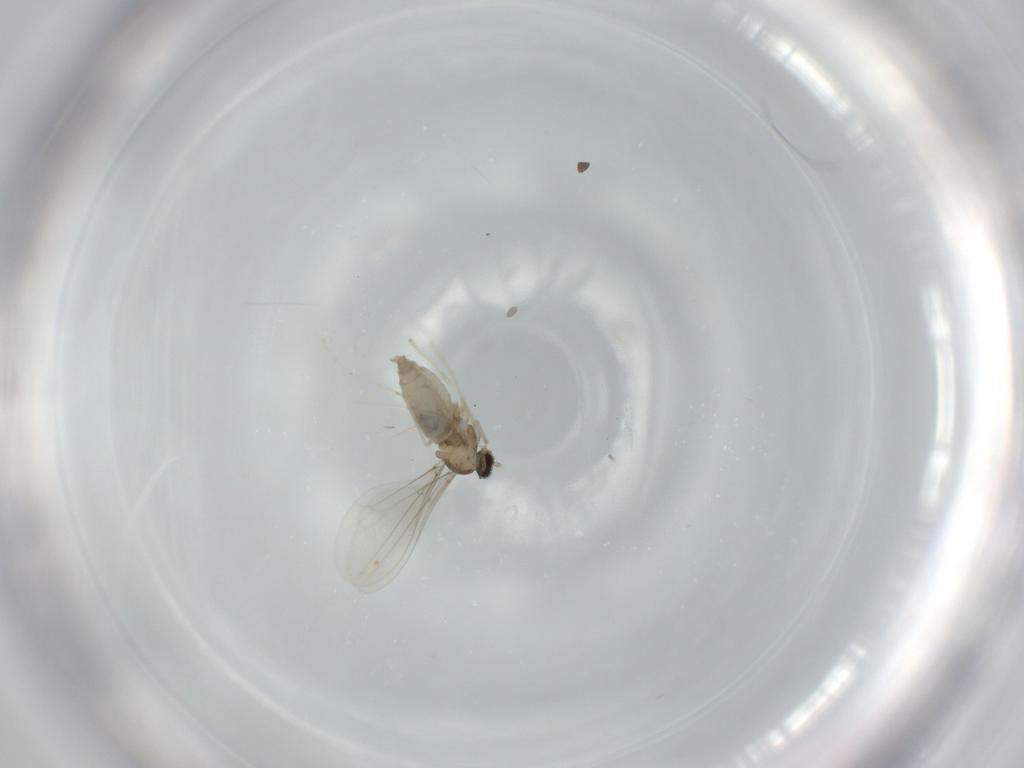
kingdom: Animalia
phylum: Arthropoda
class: Insecta
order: Diptera
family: Cecidomyiidae
